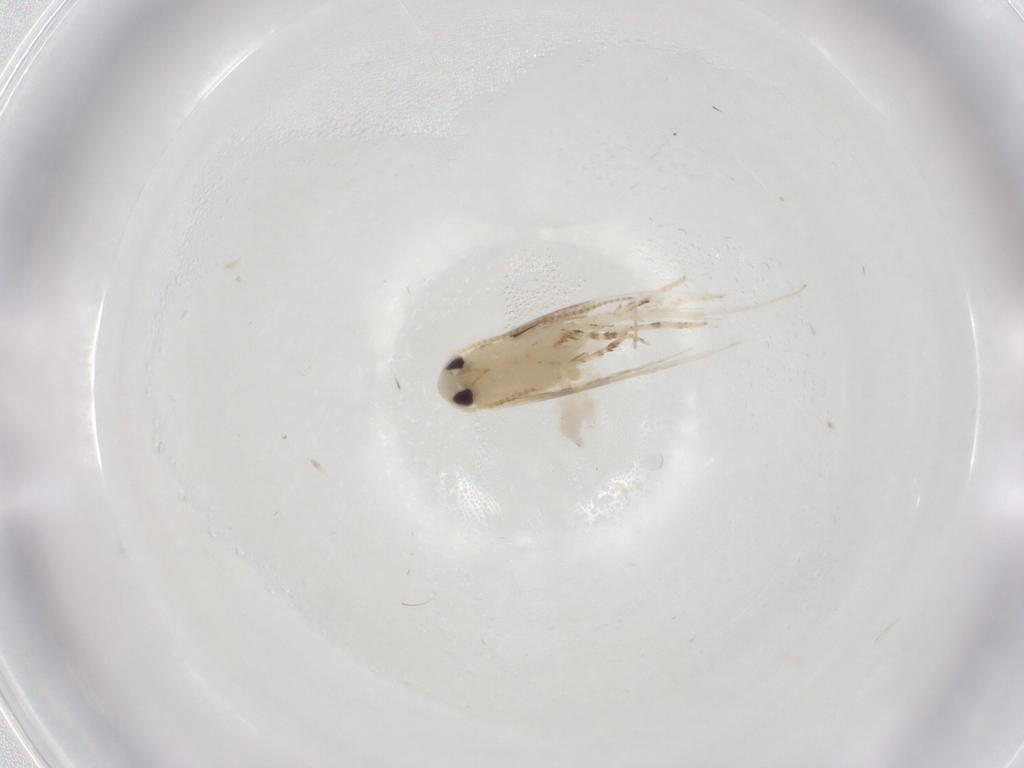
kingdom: Animalia
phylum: Arthropoda
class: Insecta
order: Lepidoptera
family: Gracillariidae
